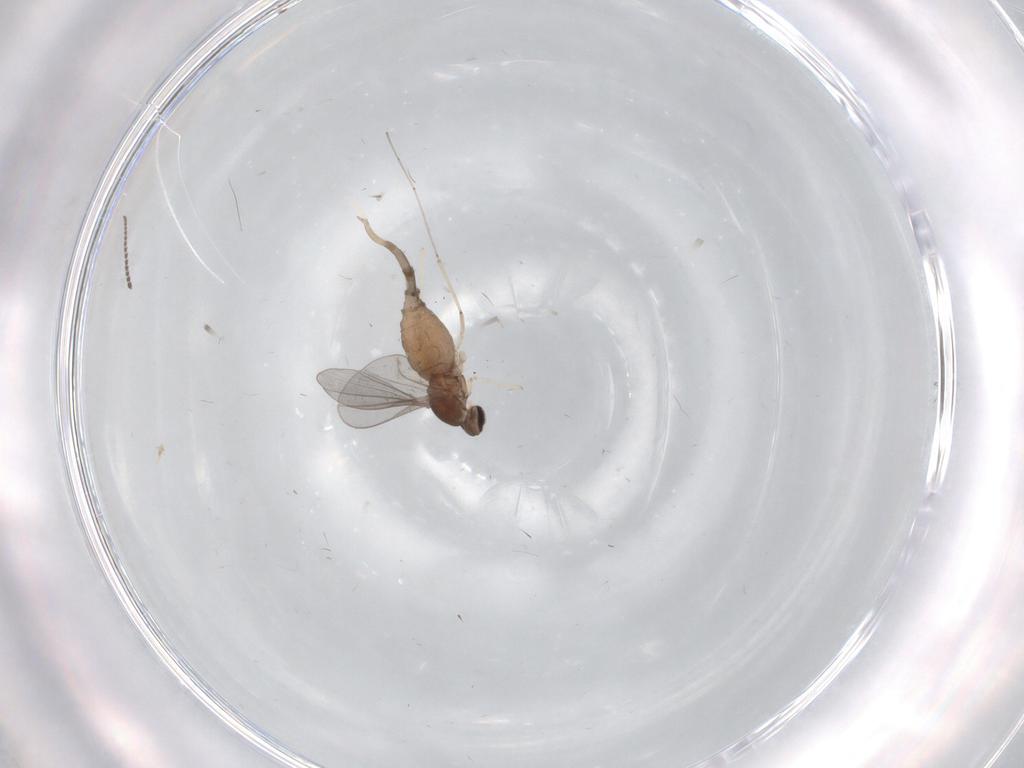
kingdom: Animalia
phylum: Arthropoda
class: Insecta
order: Diptera
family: Cecidomyiidae
